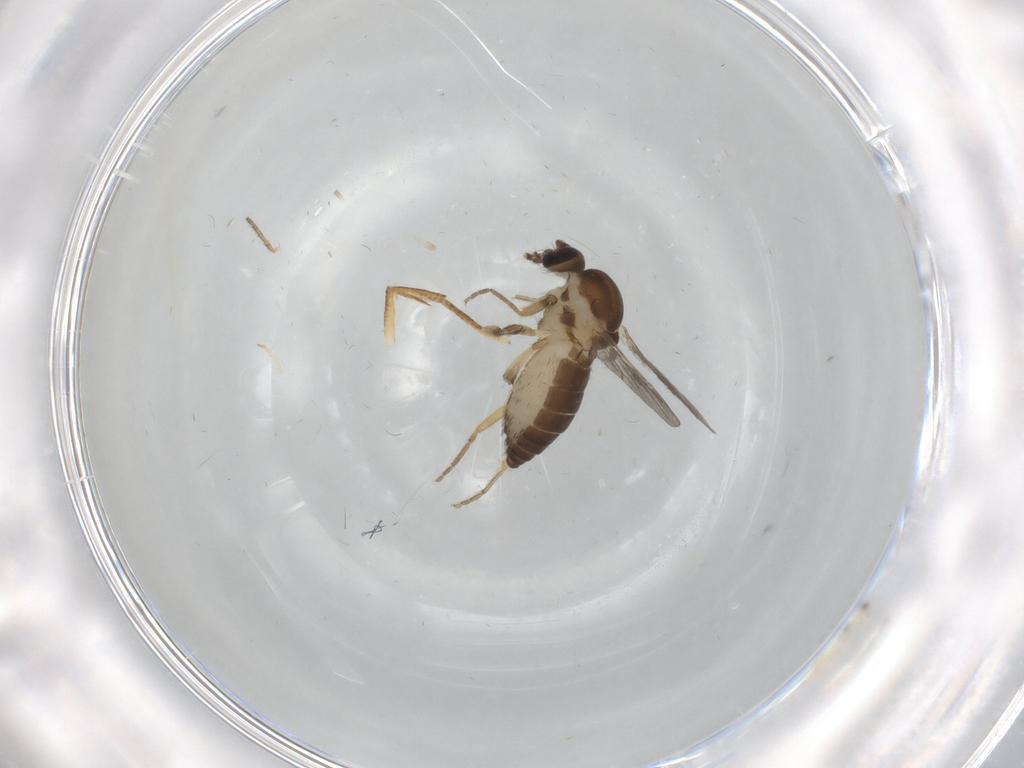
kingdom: Animalia
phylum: Arthropoda
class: Insecta
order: Diptera
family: Ceratopogonidae
